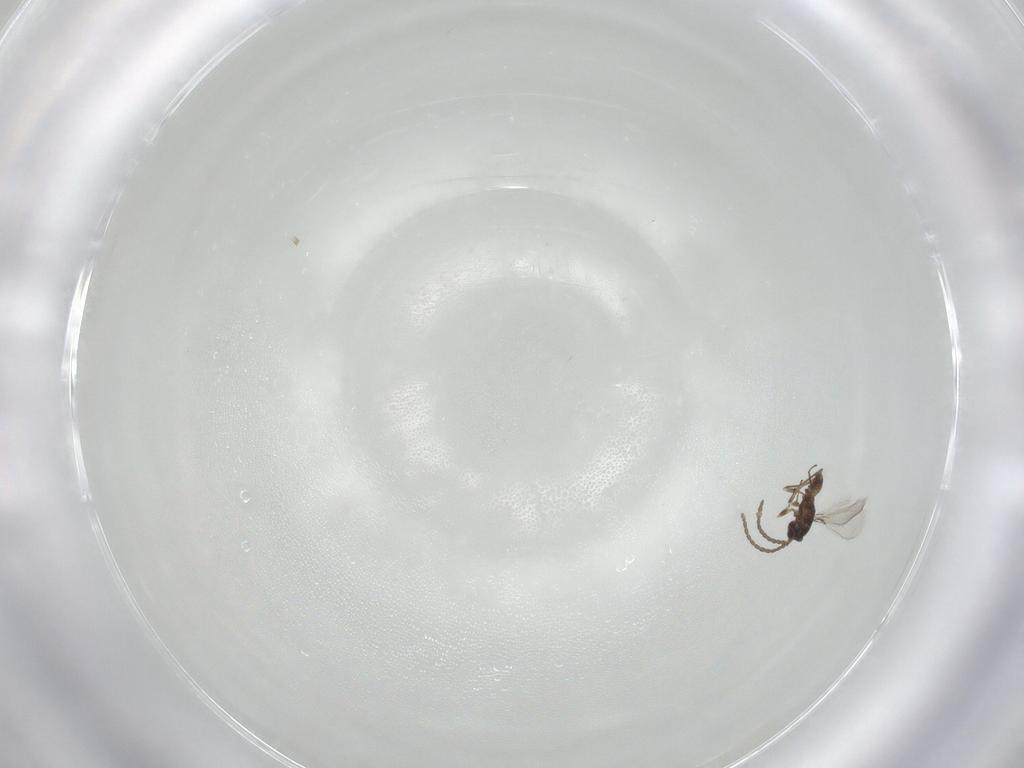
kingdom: Animalia
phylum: Arthropoda
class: Insecta
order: Hymenoptera
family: Mymaridae
